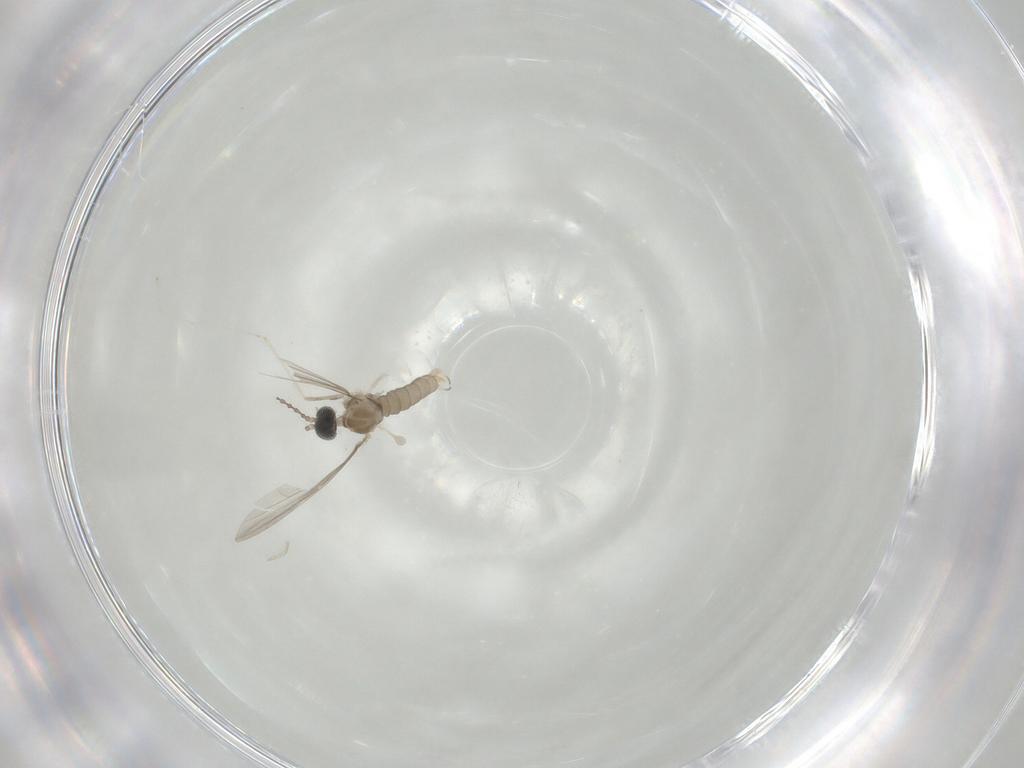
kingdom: Animalia
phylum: Arthropoda
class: Insecta
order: Diptera
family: Cecidomyiidae
